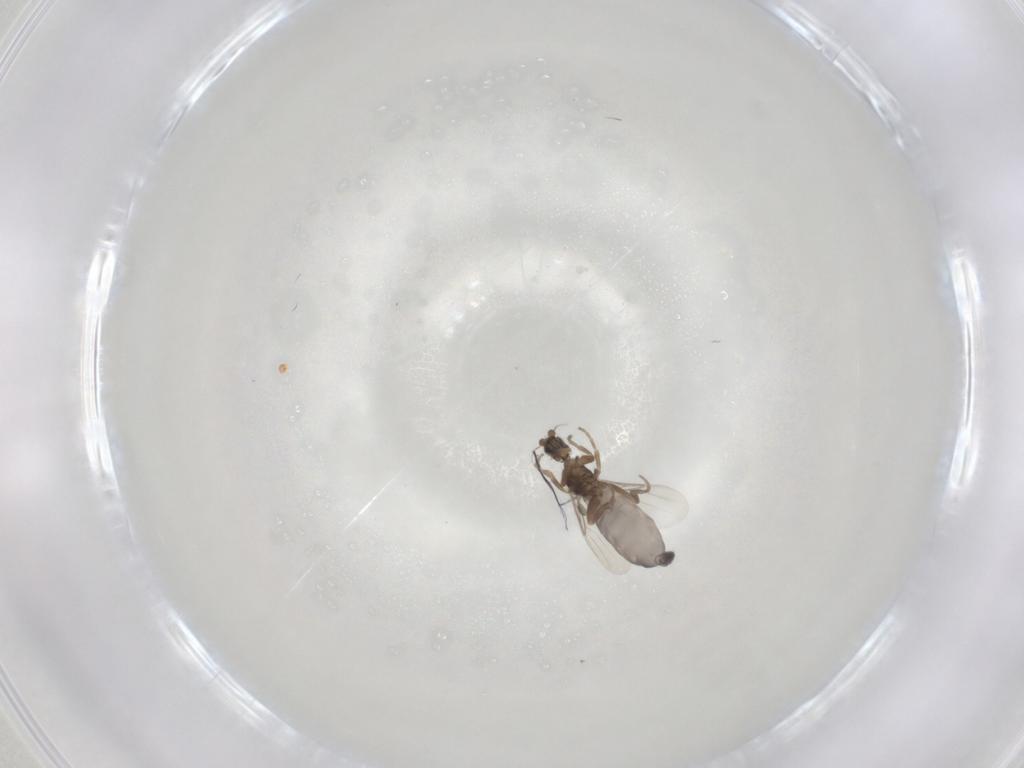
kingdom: Animalia
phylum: Arthropoda
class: Insecta
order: Diptera
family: Phoridae
